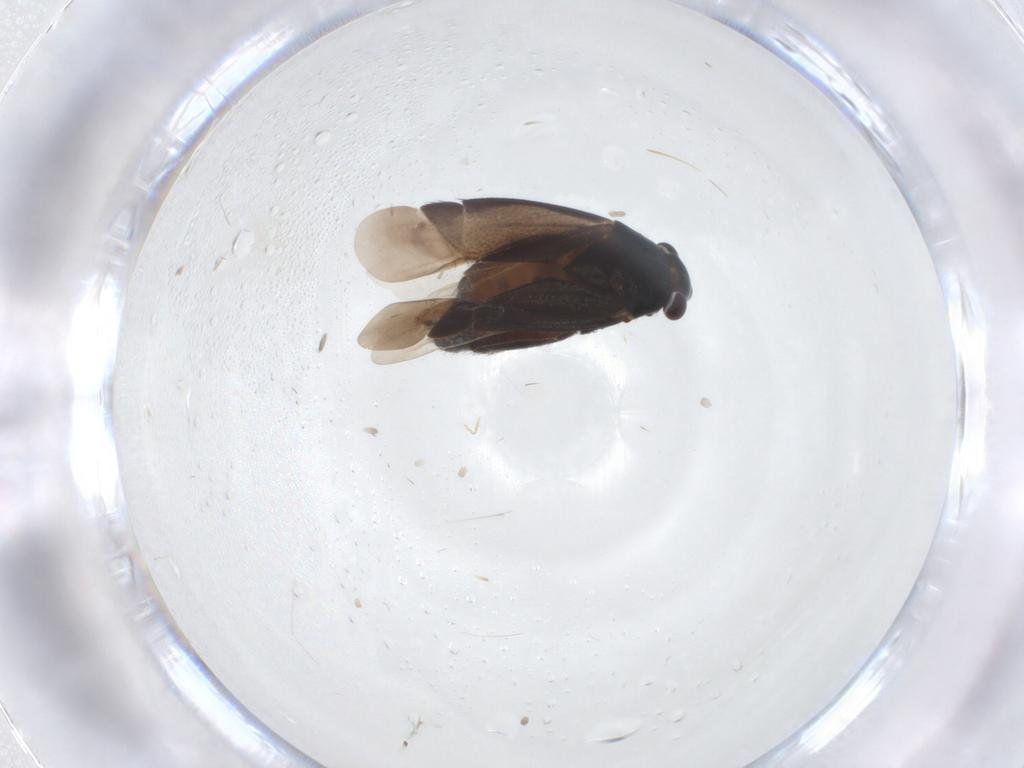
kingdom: Animalia
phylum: Arthropoda
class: Insecta
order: Hemiptera
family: Miridae
